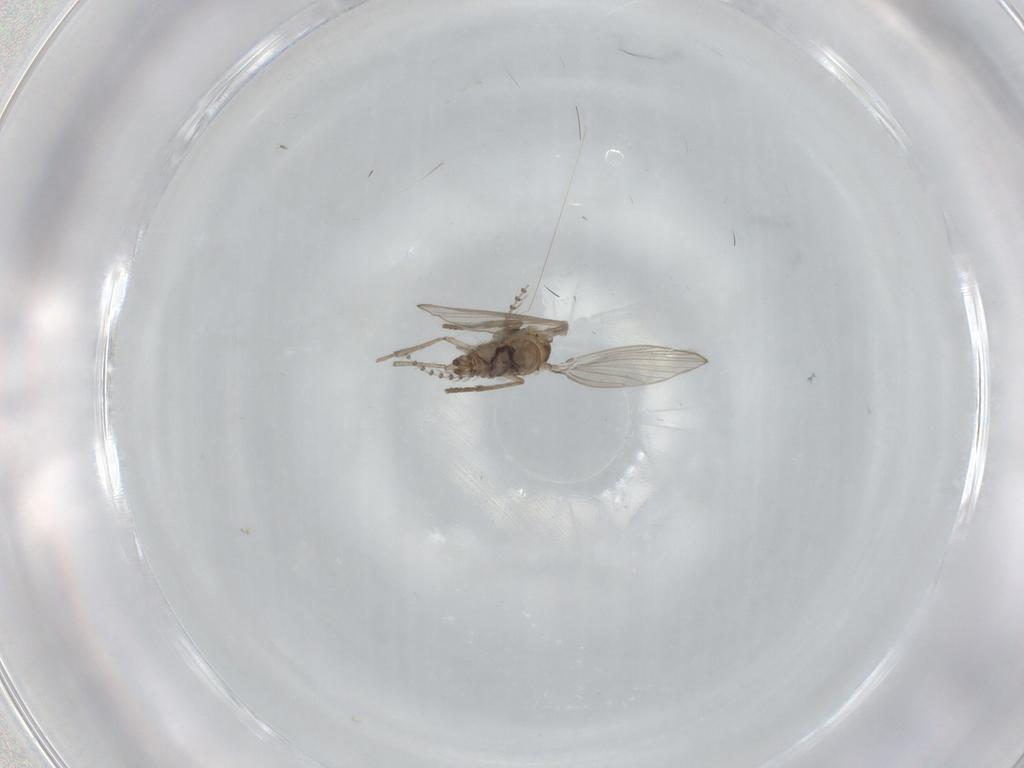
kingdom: Animalia
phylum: Arthropoda
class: Insecta
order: Diptera
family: Psychodidae
